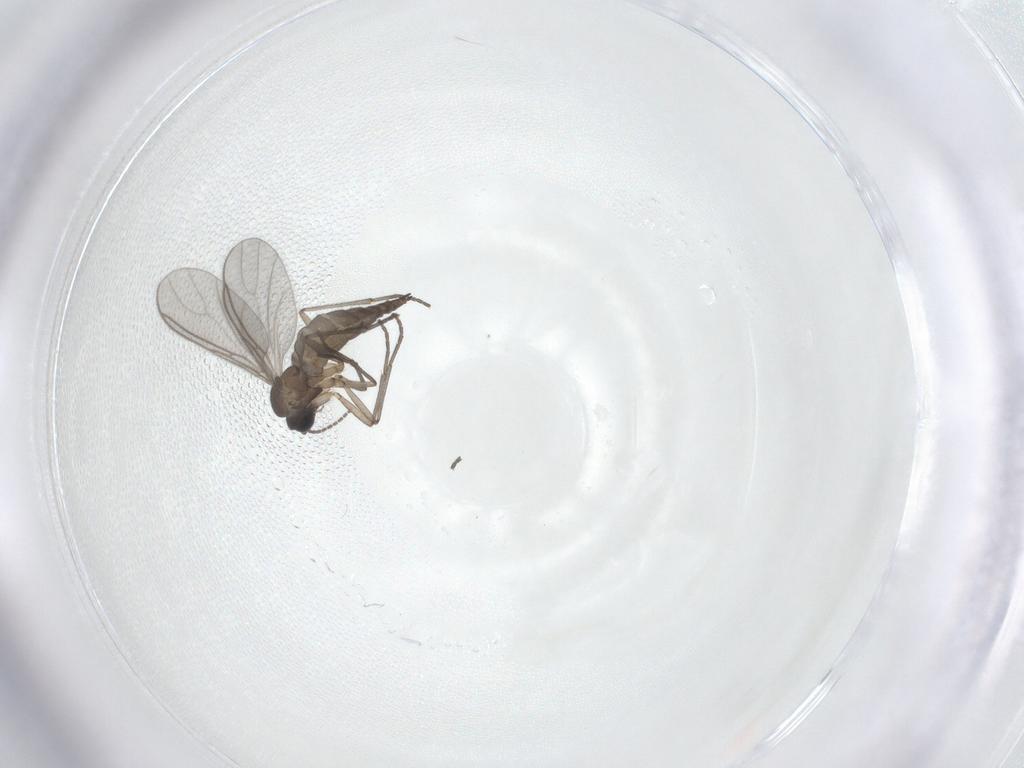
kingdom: Animalia
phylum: Arthropoda
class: Insecta
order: Diptera
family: Sciaridae
